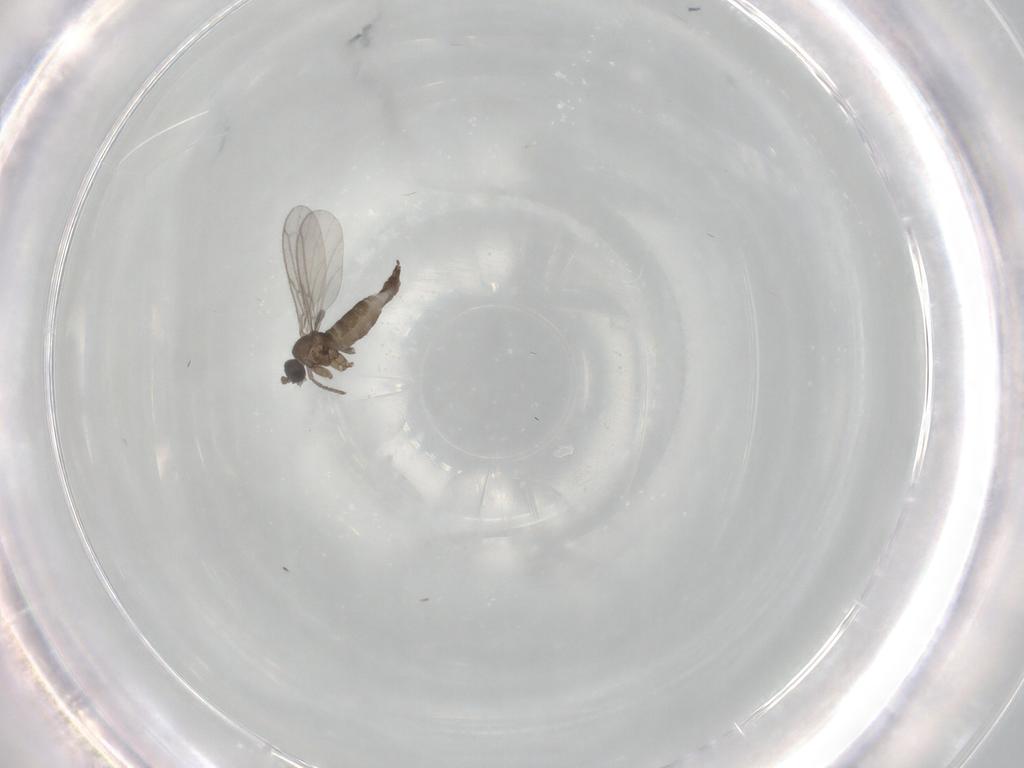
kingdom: Animalia
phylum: Arthropoda
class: Insecta
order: Diptera
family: Sciaridae
